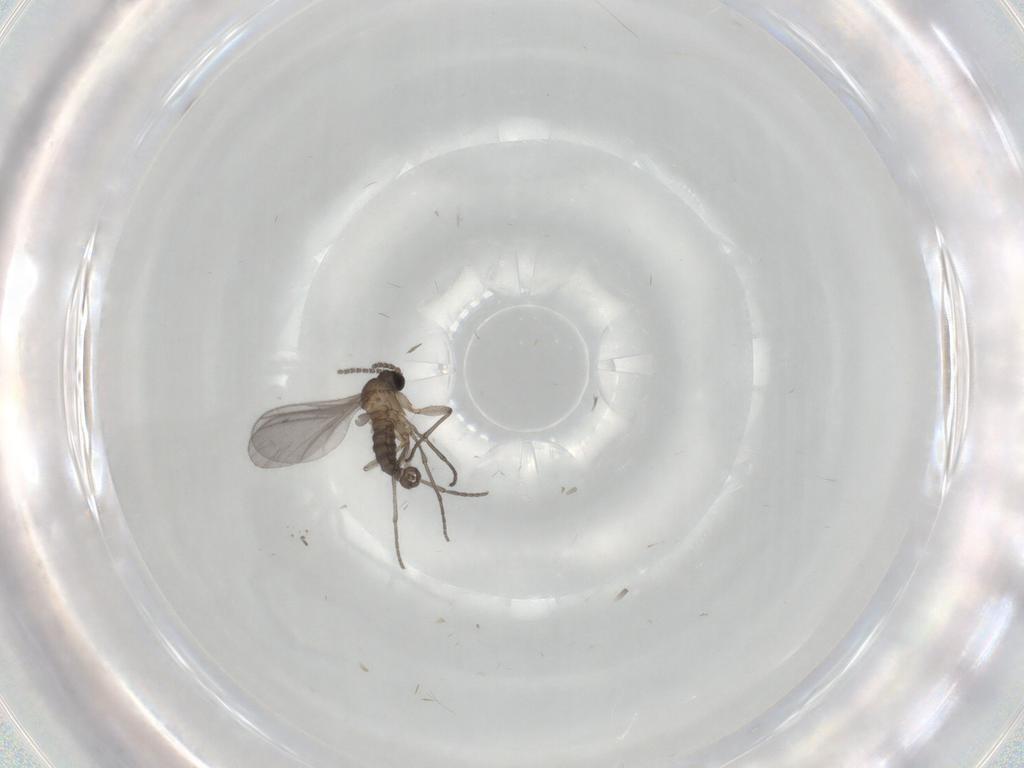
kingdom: Animalia
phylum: Arthropoda
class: Insecta
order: Diptera
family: Sciaridae
